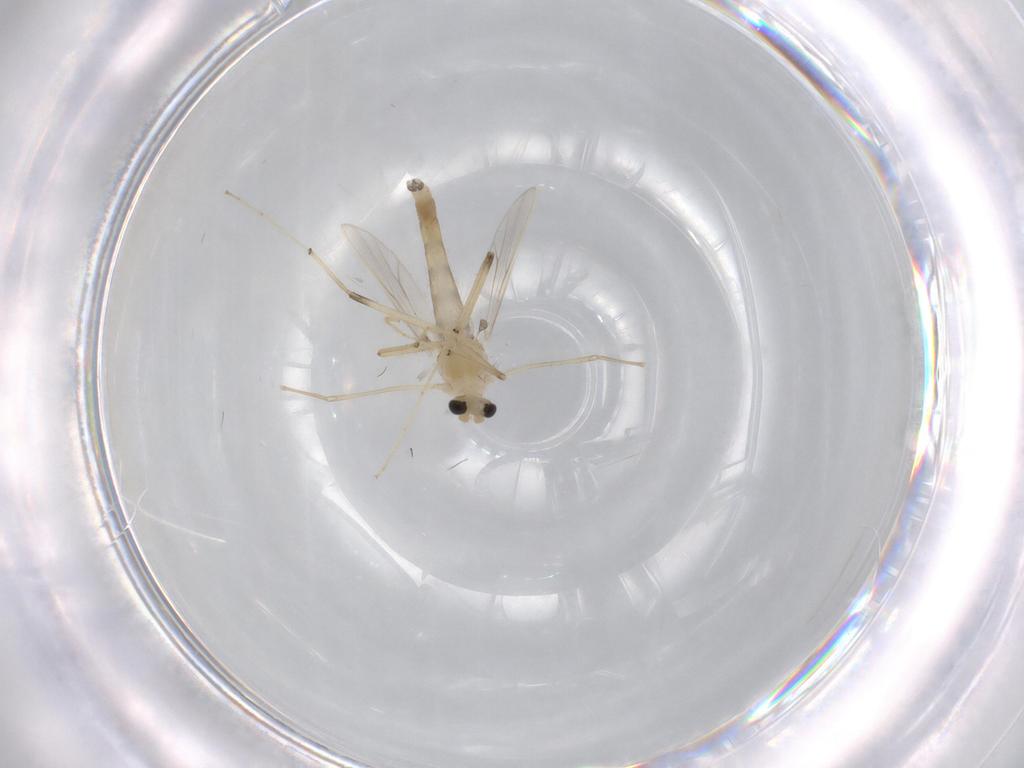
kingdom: Animalia
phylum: Arthropoda
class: Insecta
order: Diptera
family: Chironomidae
